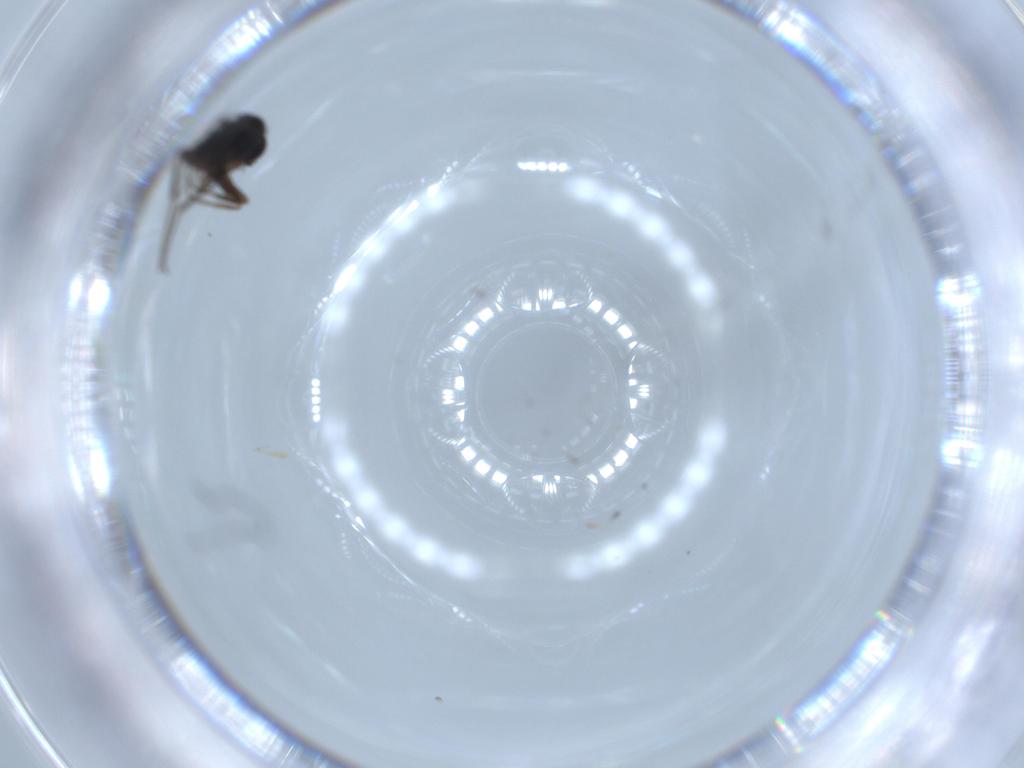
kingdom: Animalia
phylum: Arthropoda
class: Insecta
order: Diptera
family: Phoridae
